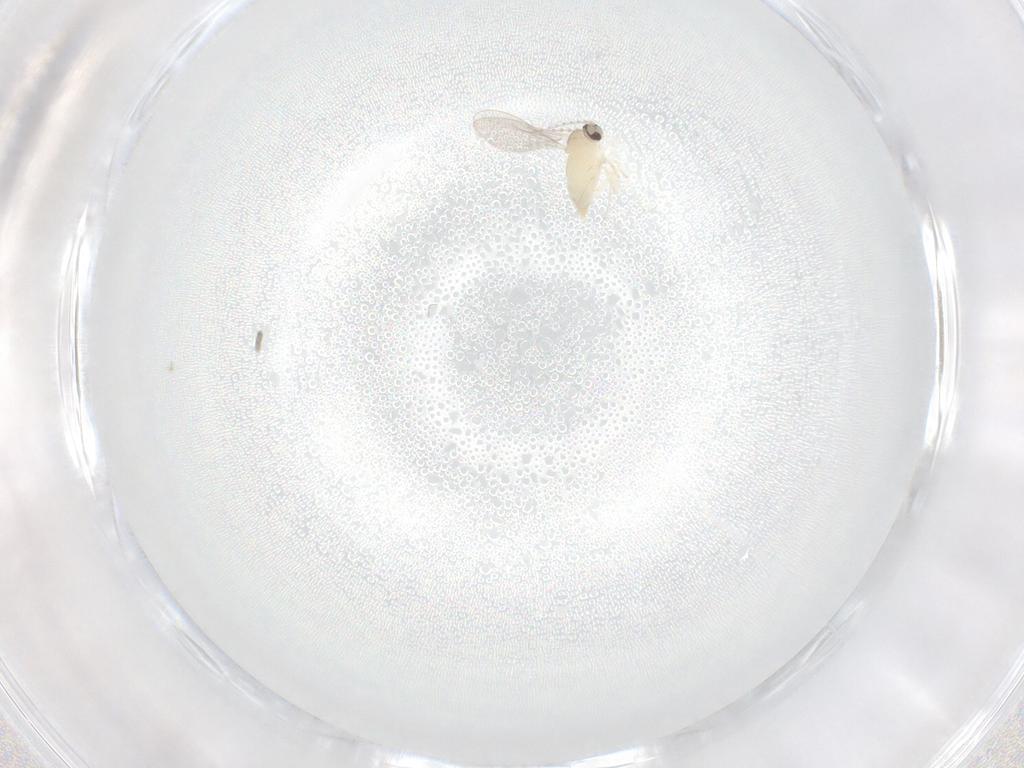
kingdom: Animalia
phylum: Arthropoda
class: Insecta
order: Diptera
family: Cecidomyiidae
